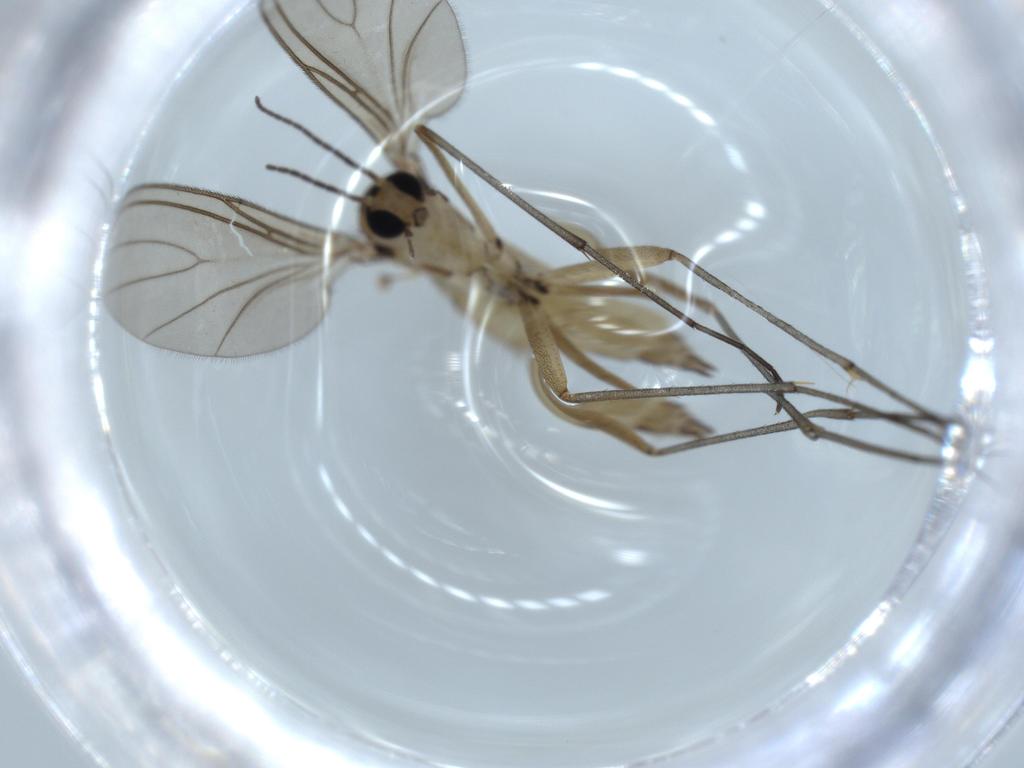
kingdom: Animalia
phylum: Arthropoda
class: Insecta
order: Diptera
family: Sciaridae
